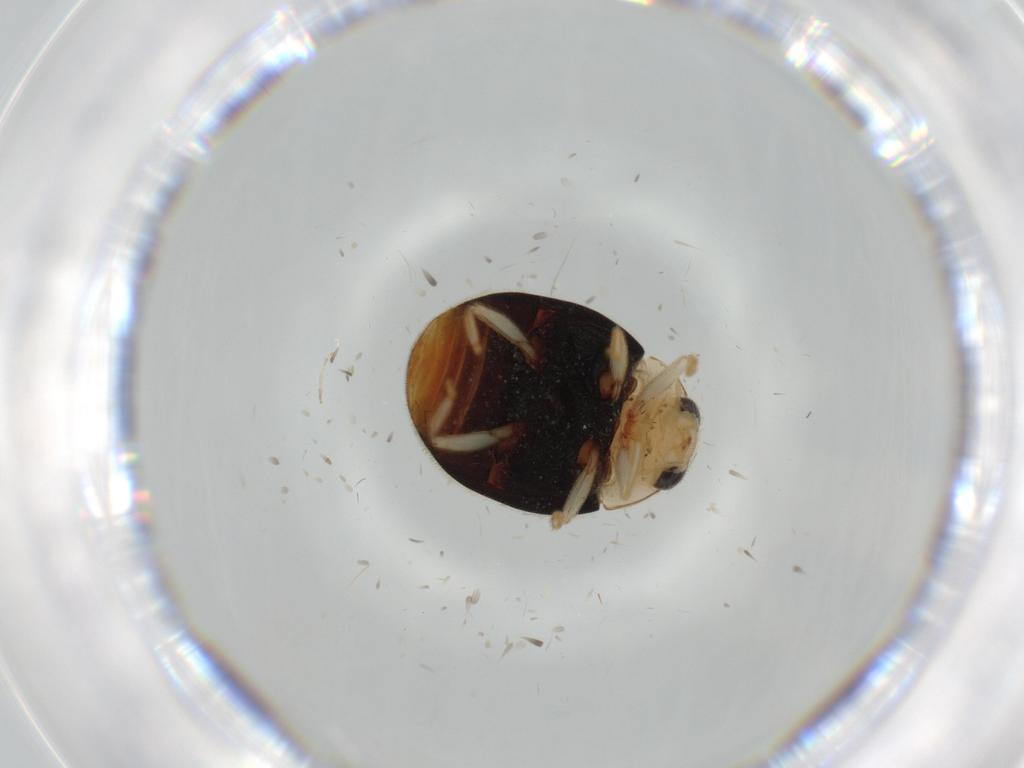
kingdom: Animalia
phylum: Arthropoda
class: Insecta
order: Coleoptera
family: Coccinellidae
